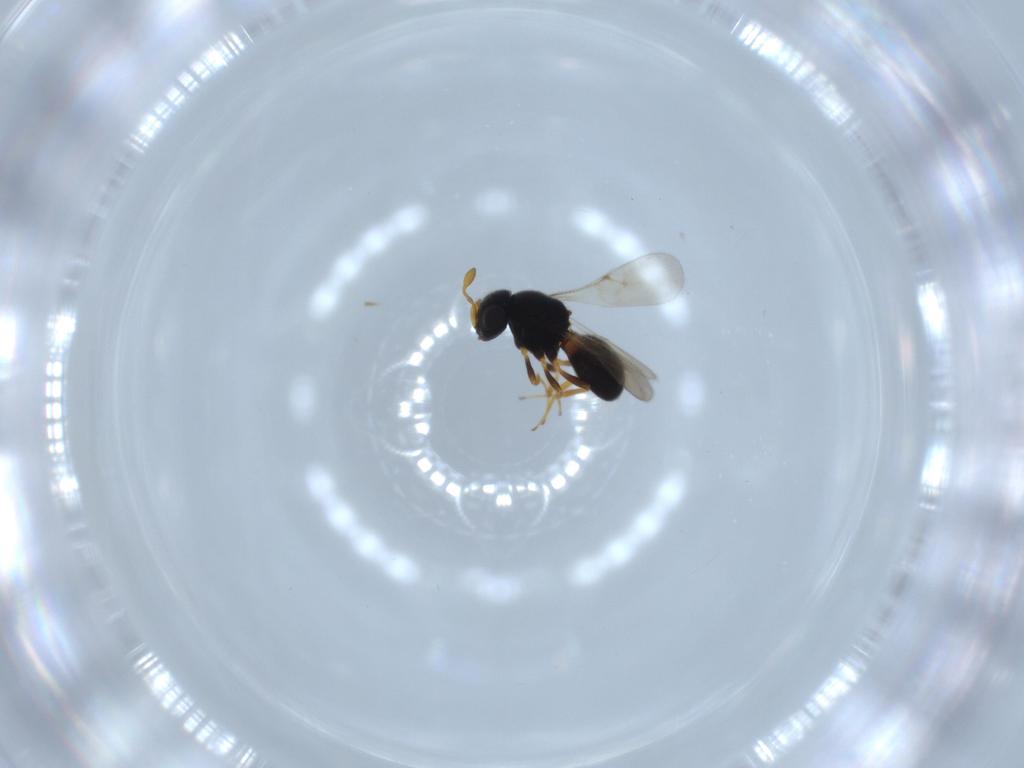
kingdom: Animalia
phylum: Arthropoda
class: Insecta
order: Hymenoptera
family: Scelionidae
